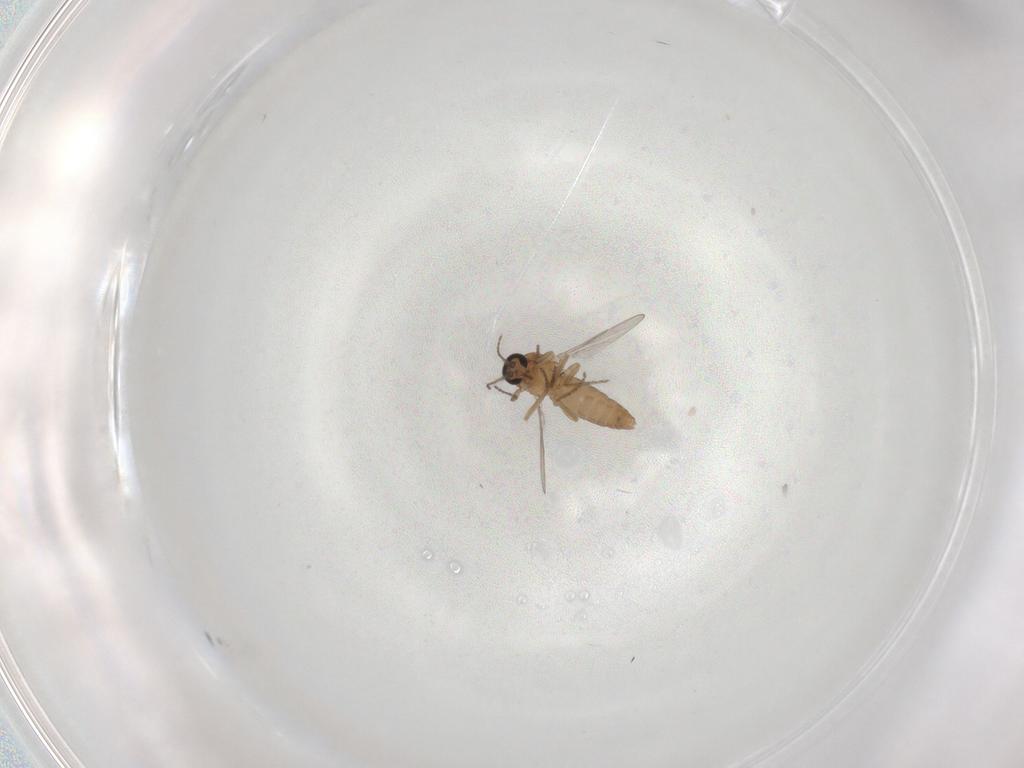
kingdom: Animalia
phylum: Arthropoda
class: Insecta
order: Diptera
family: Ceratopogonidae
